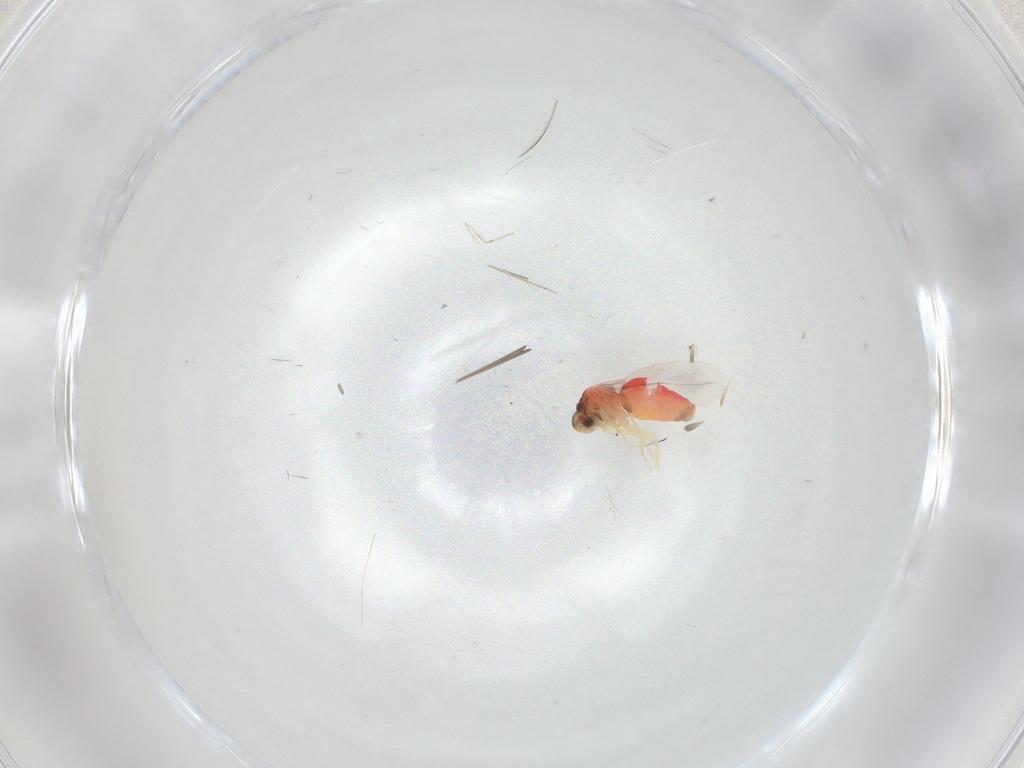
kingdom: Animalia
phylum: Arthropoda
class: Insecta
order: Hemiptera
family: Aleyrodidae
